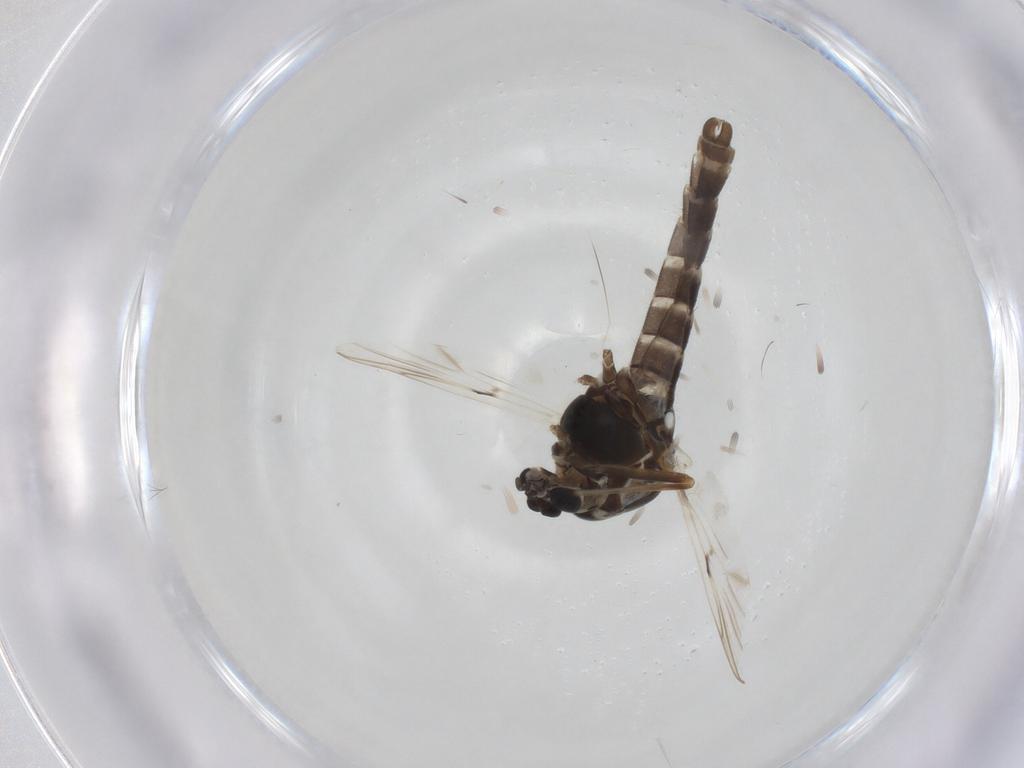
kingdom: Animalia
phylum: Arthropoda
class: Insecta
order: Diptera
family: Chironomidae
